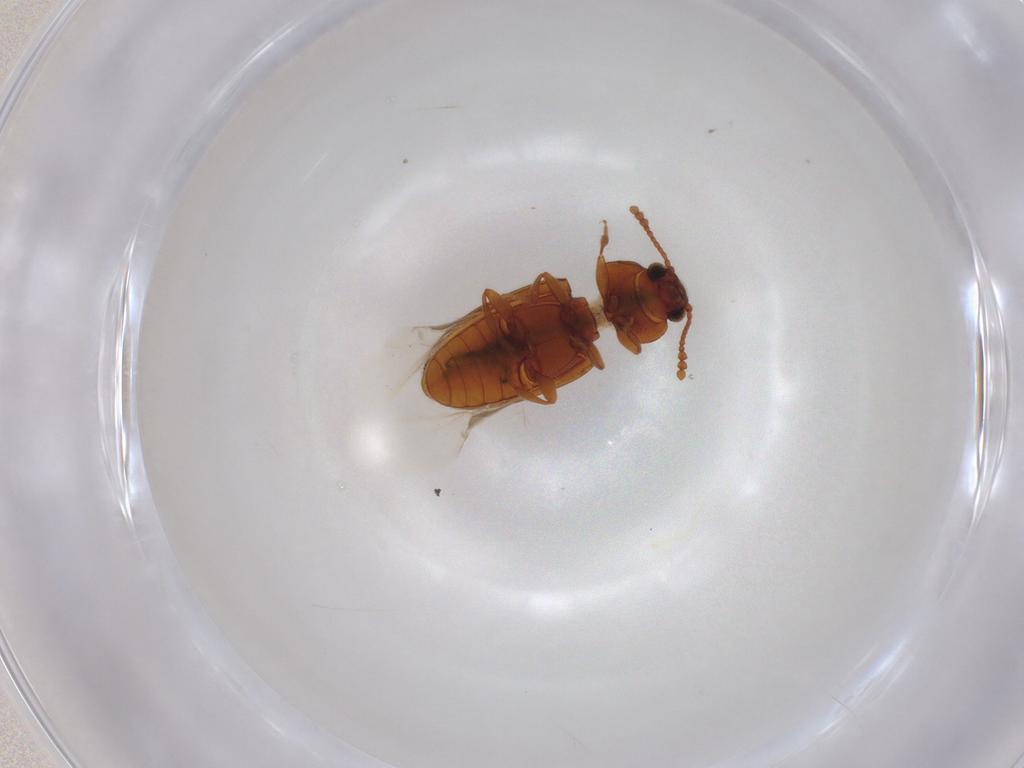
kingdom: Animalia
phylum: Arthropoda
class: Insecta
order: Coleoptera
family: Erotylidae
